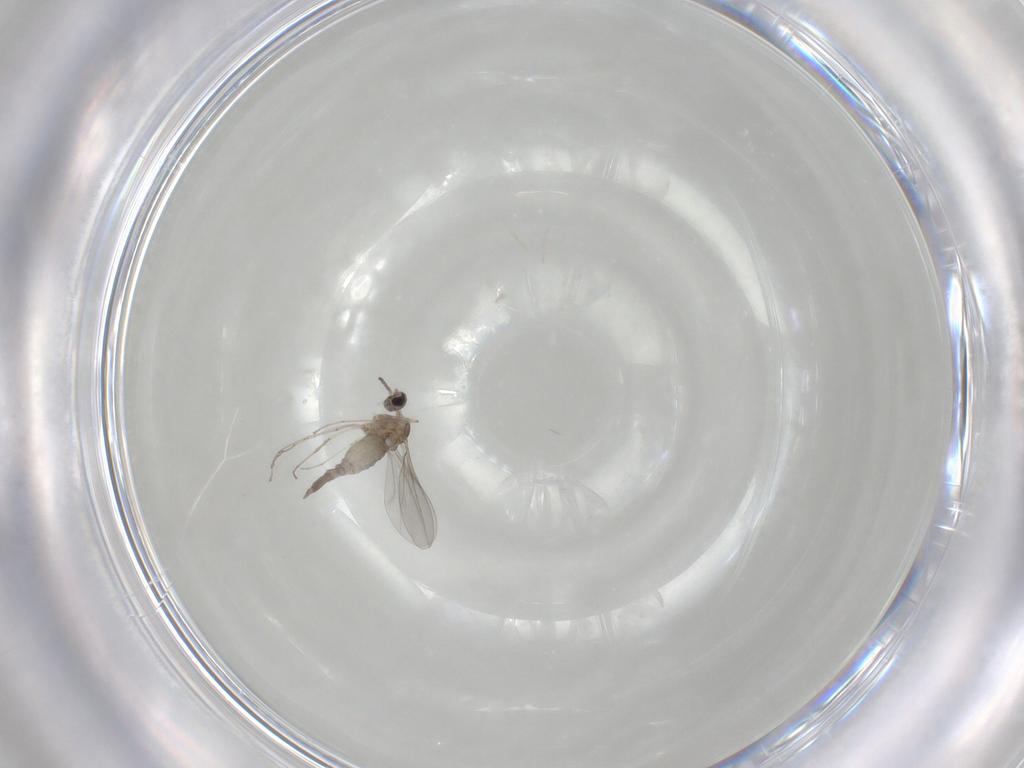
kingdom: Animalia
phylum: Arthropoda
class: Insecta
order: Diptera
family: Cecidomyiidae
